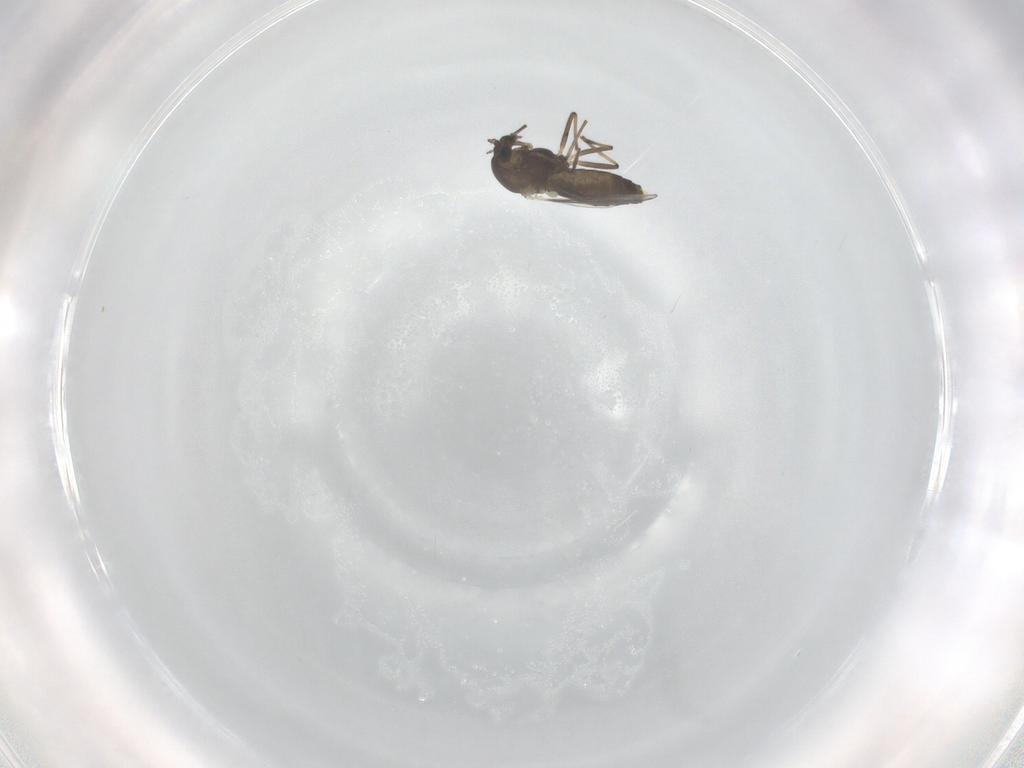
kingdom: Animalia
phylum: Arthropoda
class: Insecta
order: Diptera
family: Chironomidae
